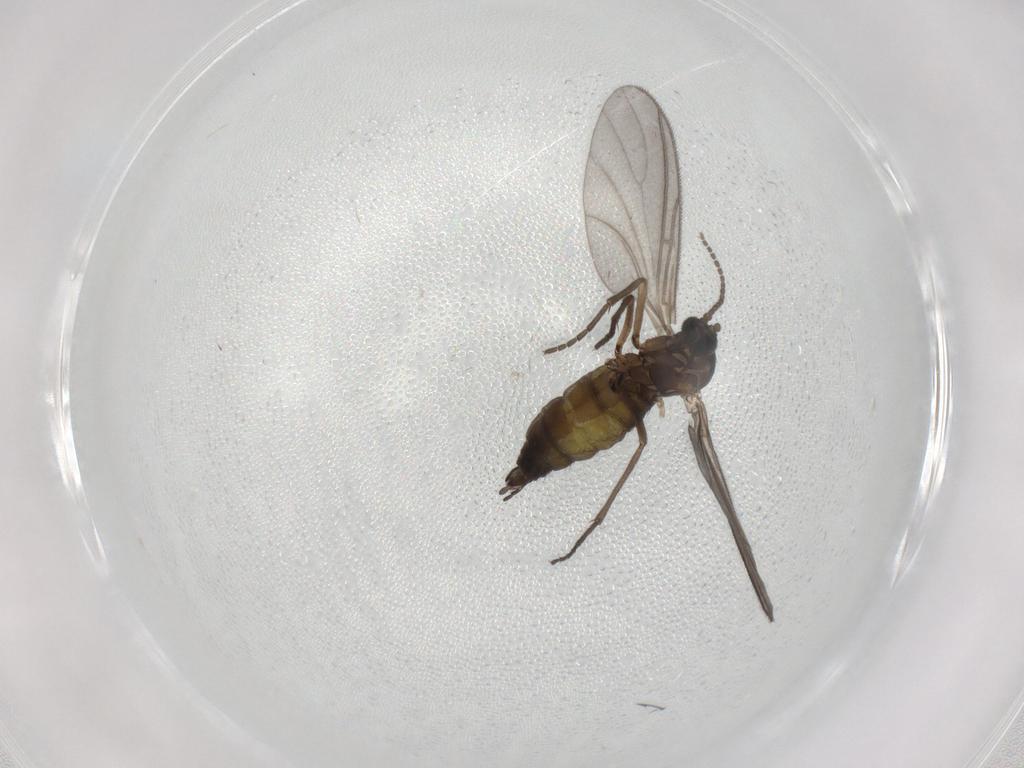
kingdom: Animalia
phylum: Arthropoda
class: Insecta
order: Diptera
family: Sciaridae
